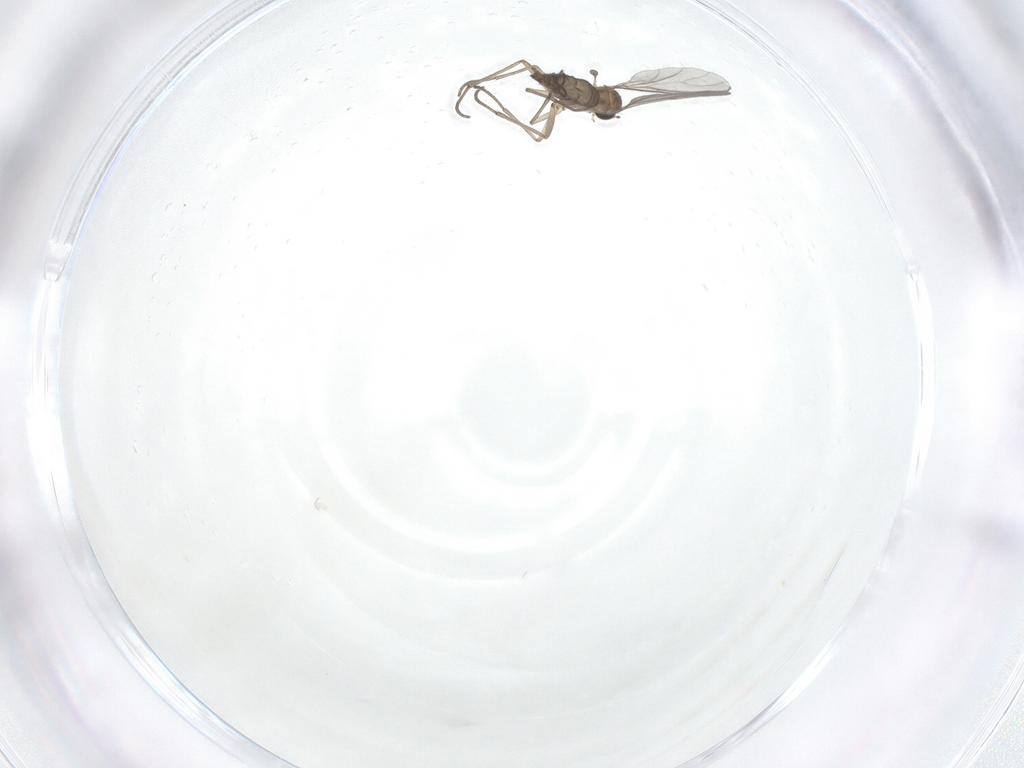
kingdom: Animalia
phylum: Arthropoda
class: Insecta
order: Diptera
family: Sciaridae
